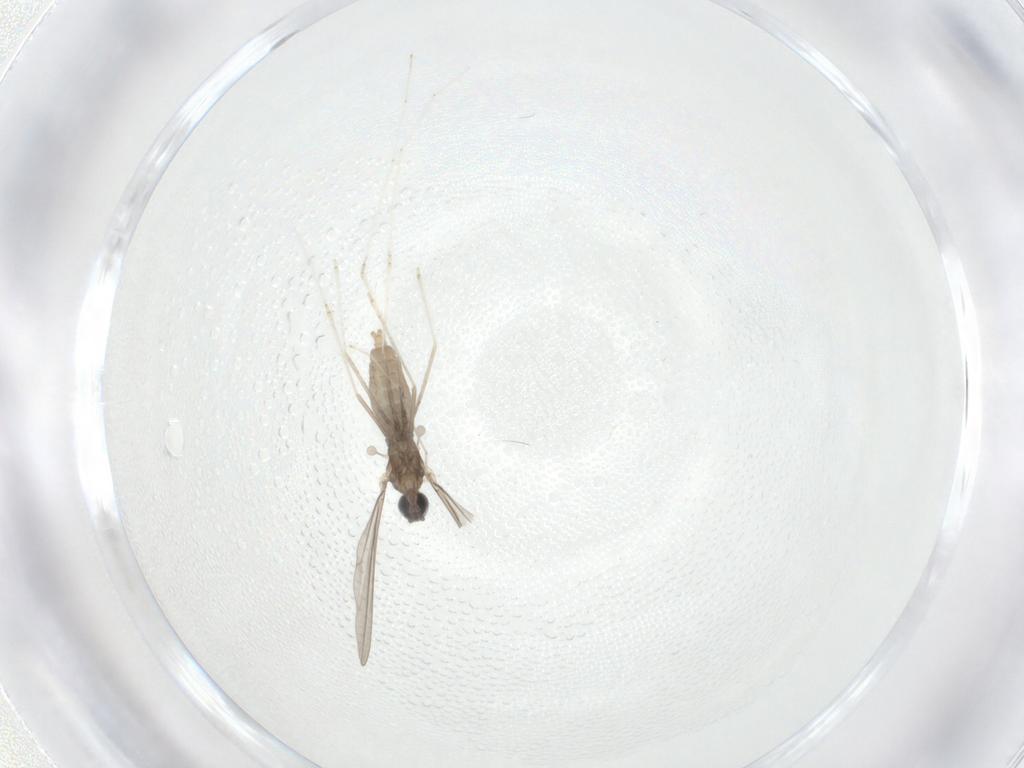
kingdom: Animalia
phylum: Arthropoda
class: Insecta
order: Diptera
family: Cecidomyiidae
